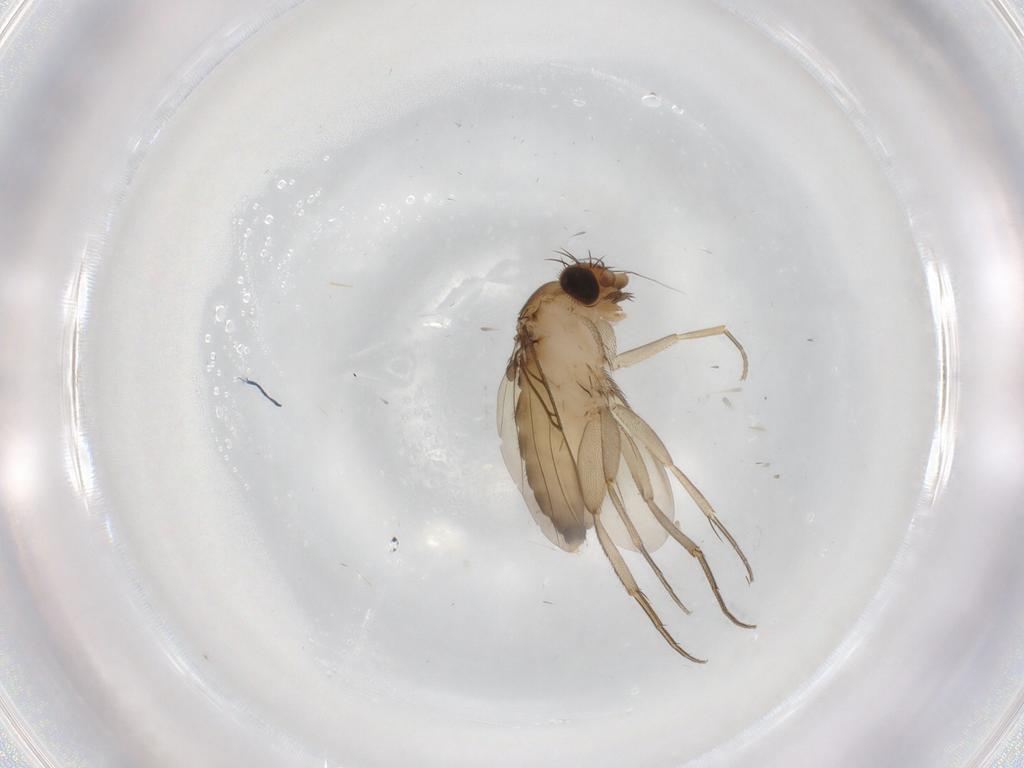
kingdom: Animalia
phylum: Arthropoda
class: Insecta
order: Diptera
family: Phoridae
